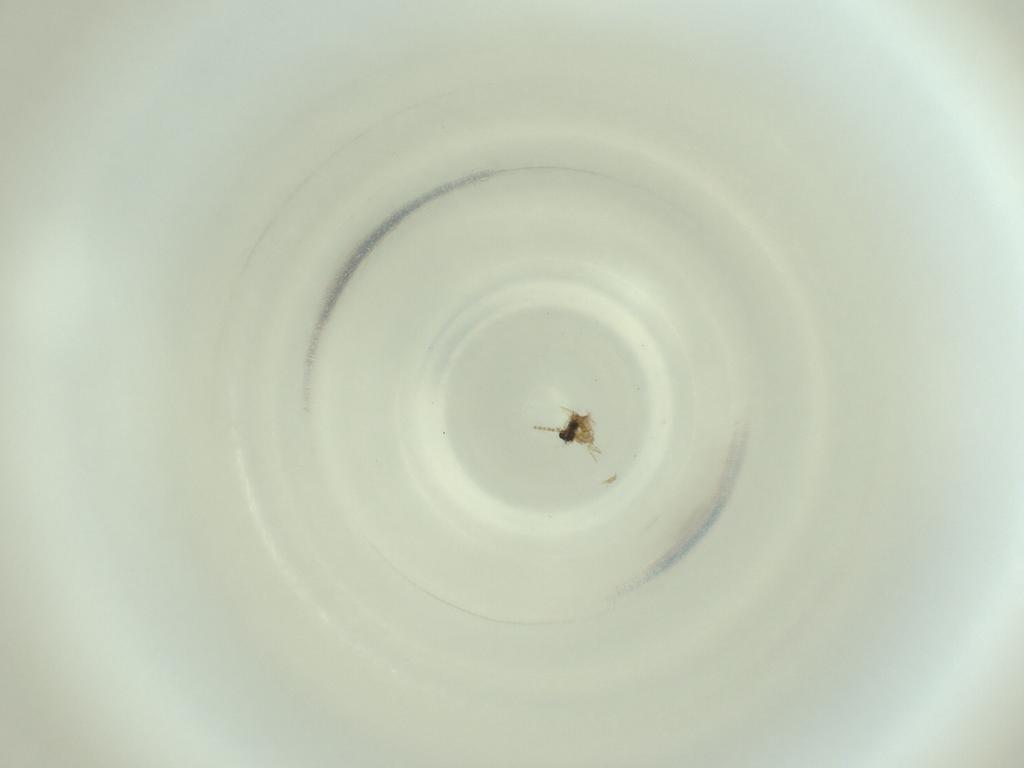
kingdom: Animalia
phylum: Arthropoda
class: Insecta
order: Diptera
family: Cecidomyiidae
